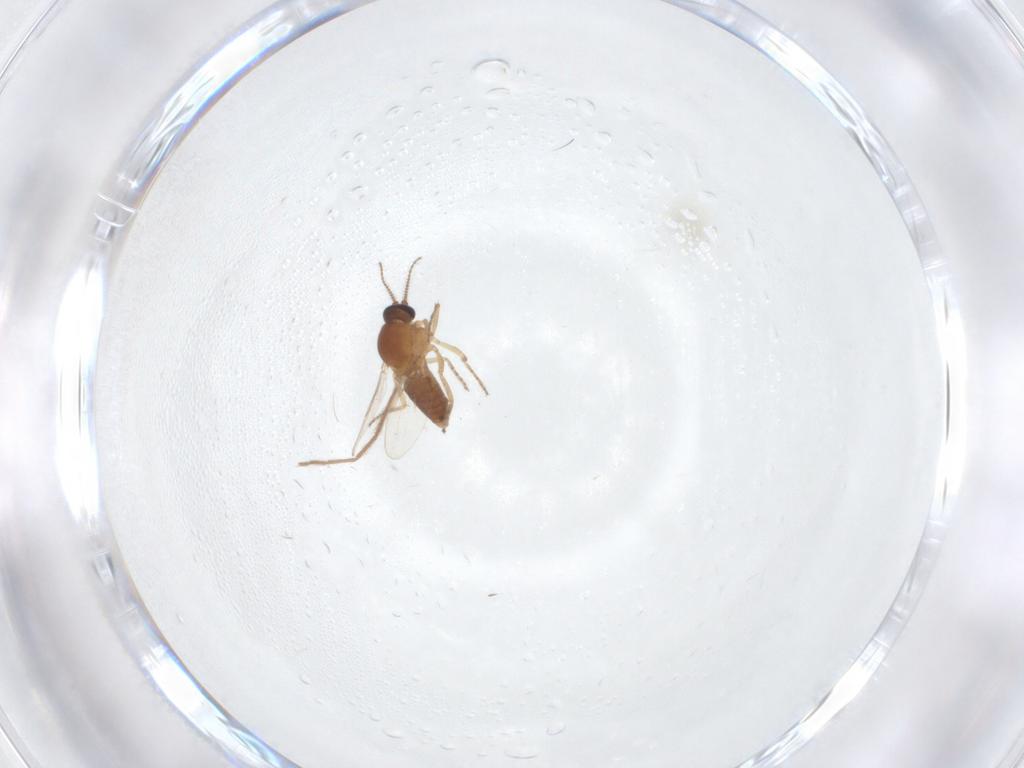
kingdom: Animalia
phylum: Arthropoda
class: Insecta
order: Diptera
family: Ceratopogonidae
